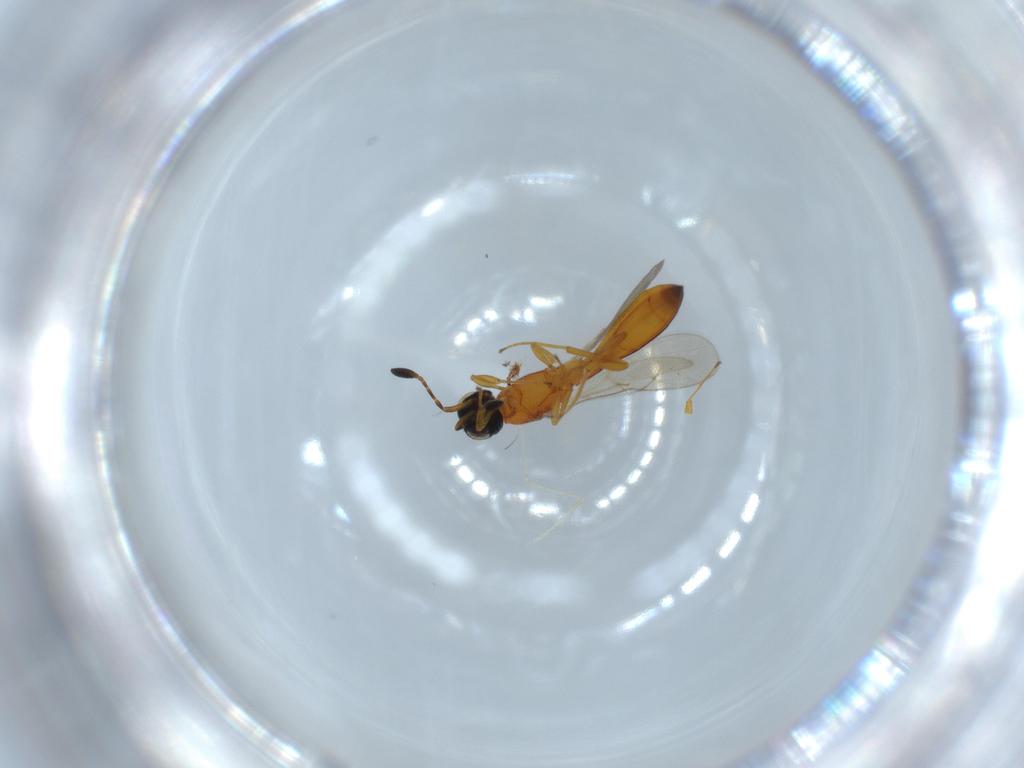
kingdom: Animalia
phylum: Arthropoda
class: Insecta
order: Hymenoptera
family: Scelionidae
